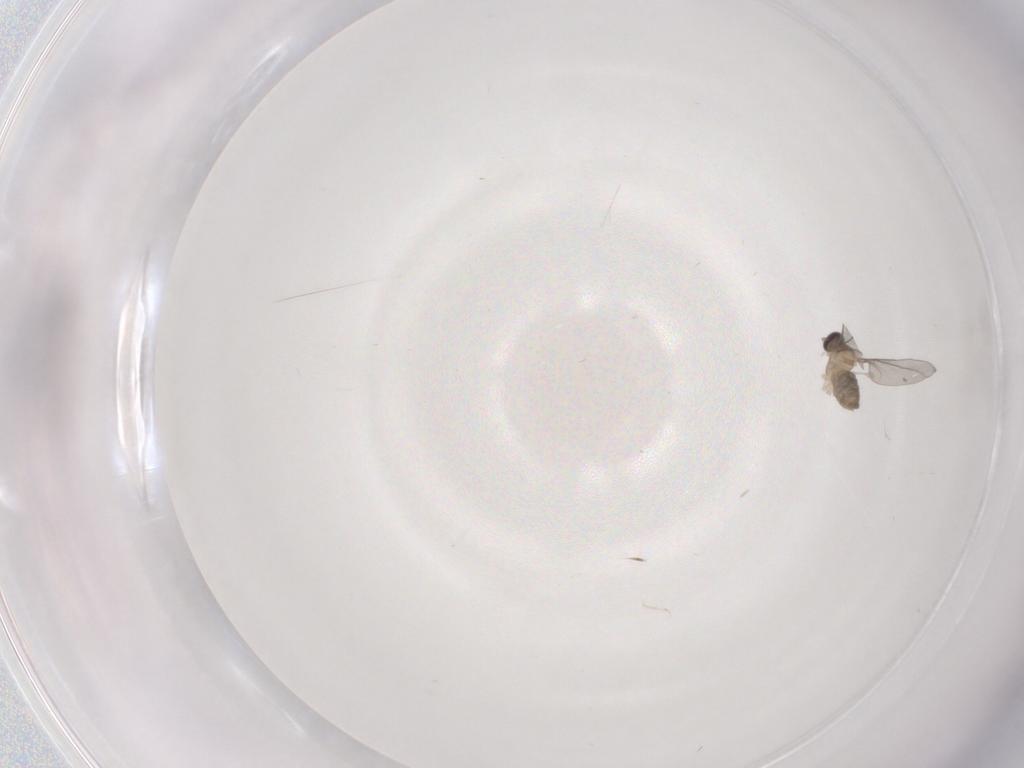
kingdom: Animalia
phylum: Arthropoda
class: Insecta
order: Diptera
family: Cecidomyiidae
